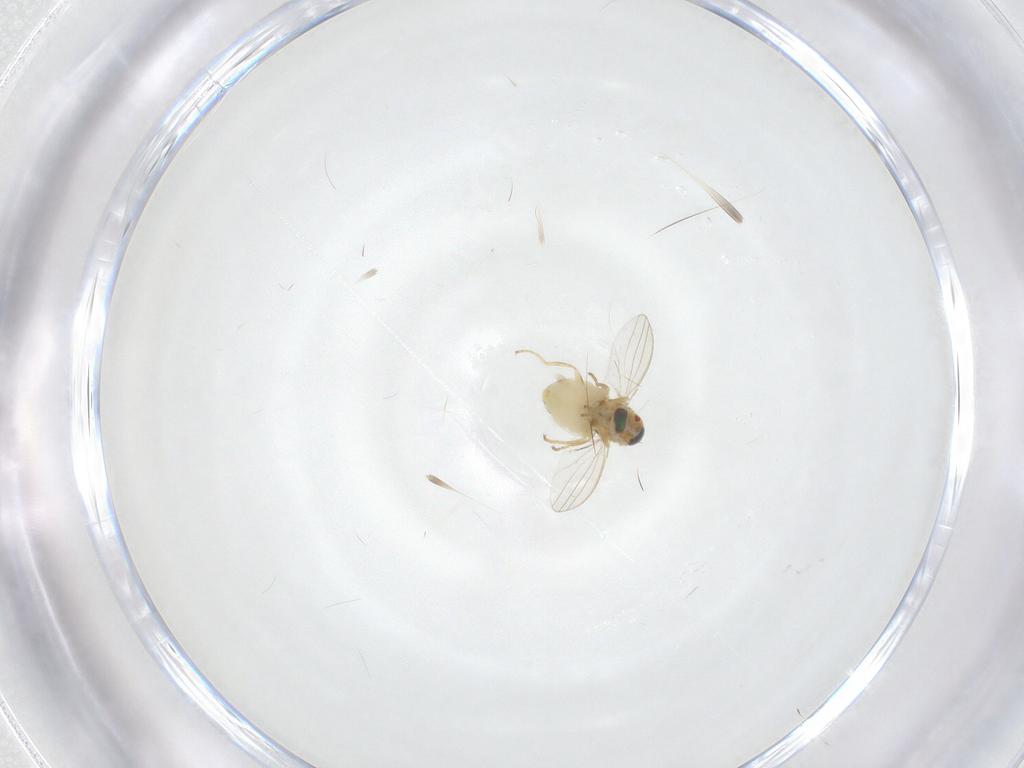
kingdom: Animalia
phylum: Arthropoda
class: Insecta
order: Diptera
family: Chyromyidae
